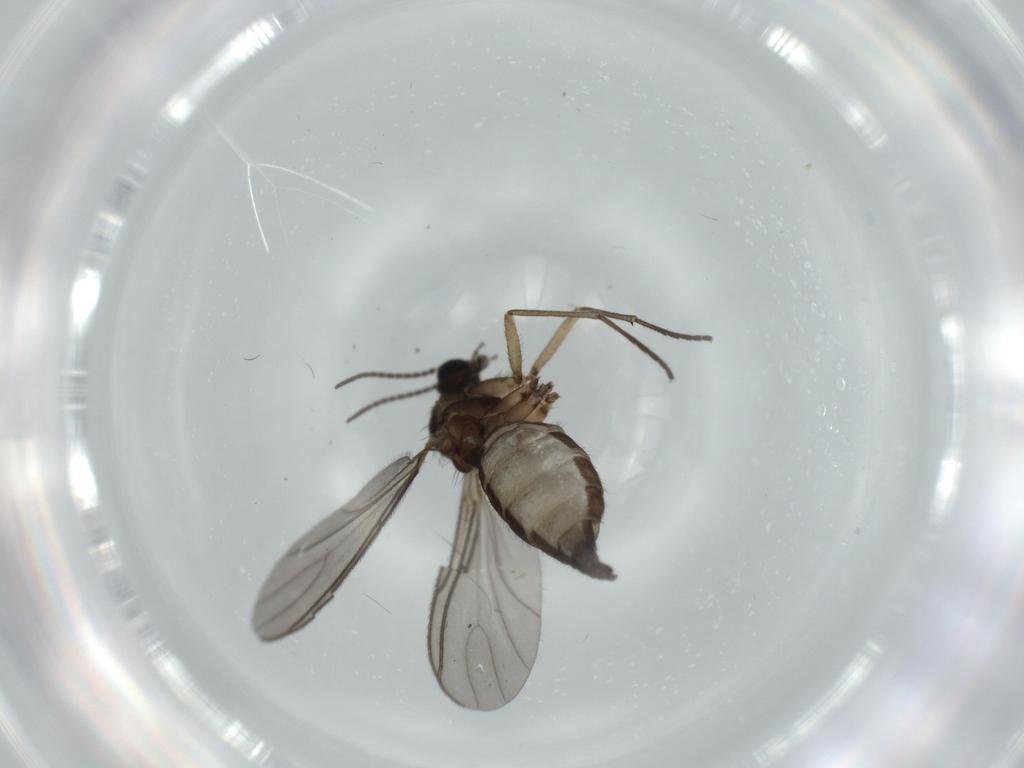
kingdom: Animalia
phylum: Arthropoda
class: Insecta
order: Diptera
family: Sciaridae
